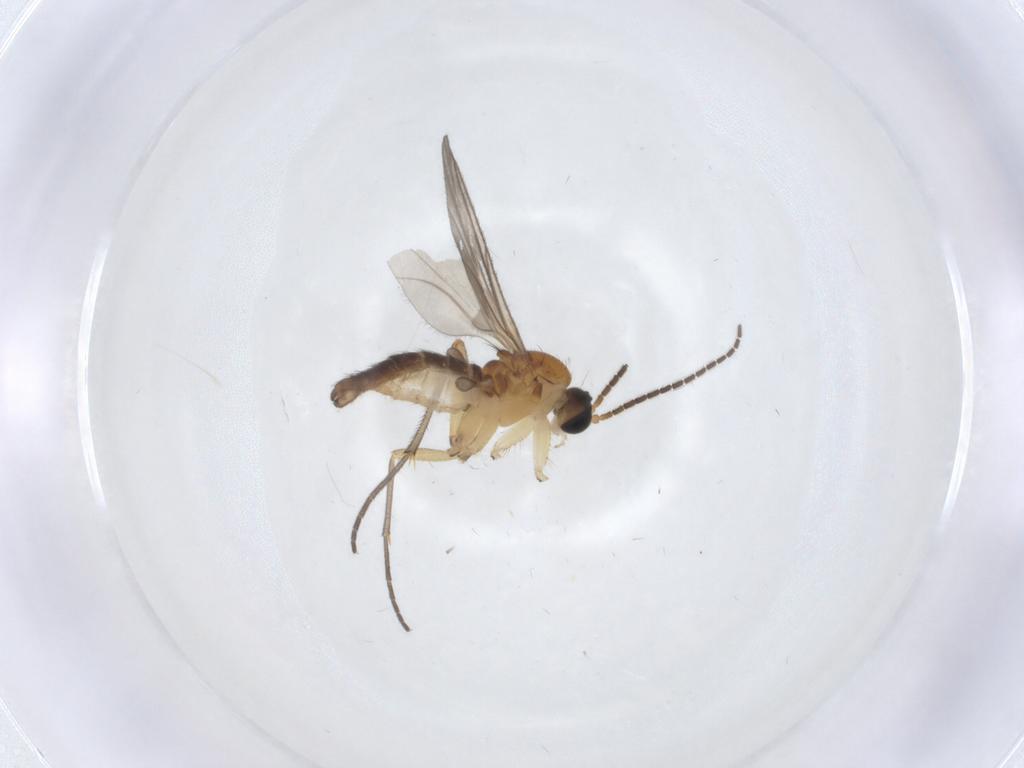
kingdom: Animalia
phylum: Arthropoda
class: Insecta
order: Diptera
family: Sciaridae
